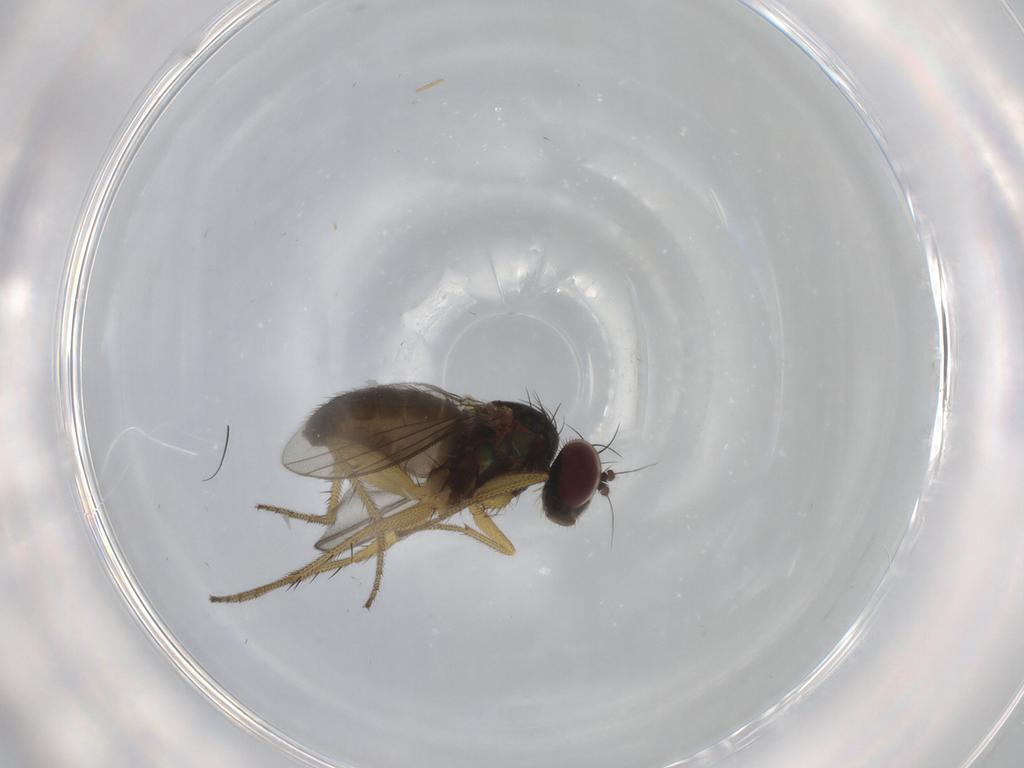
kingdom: Animalia
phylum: Arthropoda
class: Insecta
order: Diptera
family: Sciaridae
